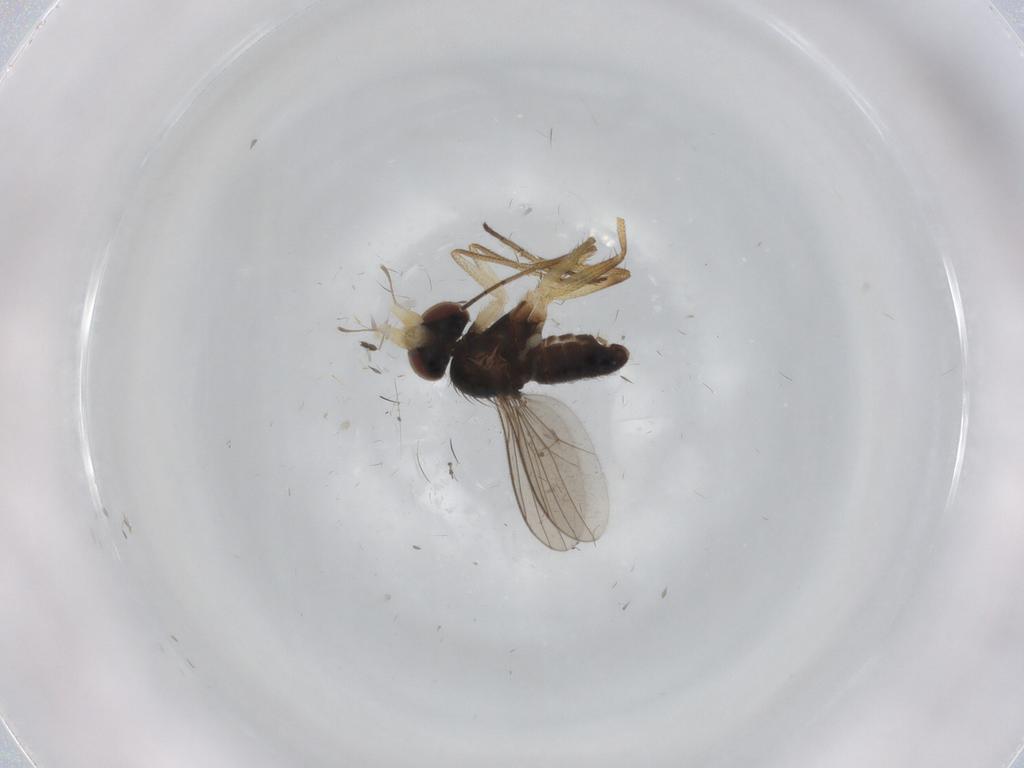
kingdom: Animalia
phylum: Arthropoda
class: Insecta
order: Diptera
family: Dolichopodidae
